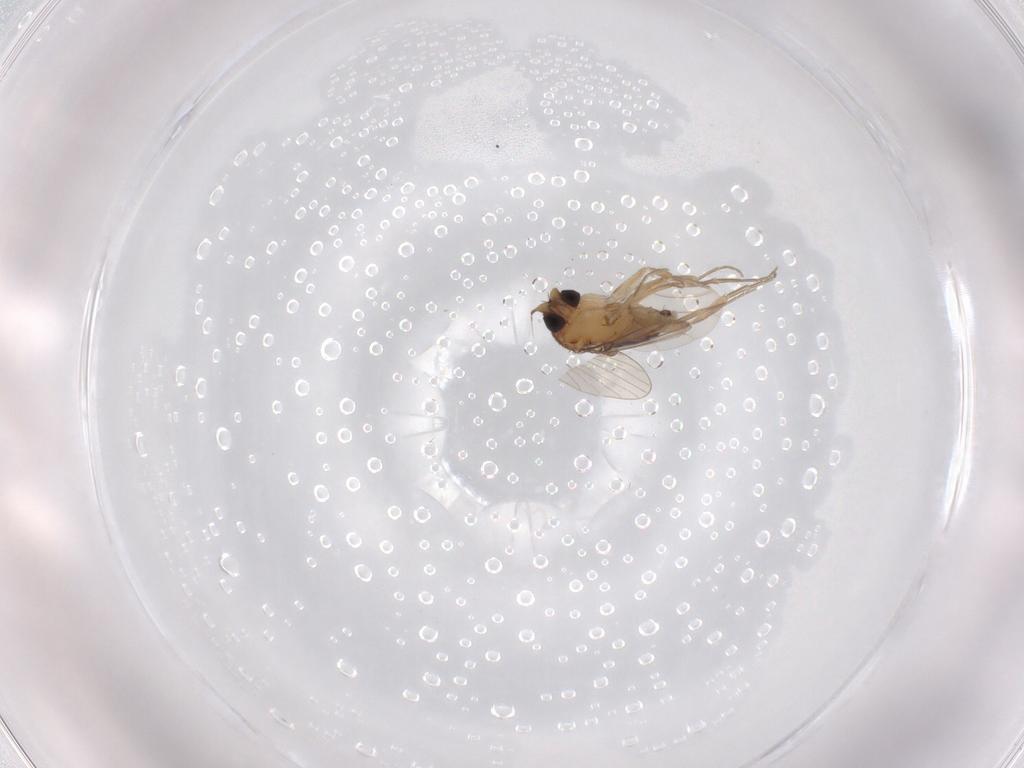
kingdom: Animalia
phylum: Arthropoda
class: Insecta
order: Diptera
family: Phoridae
